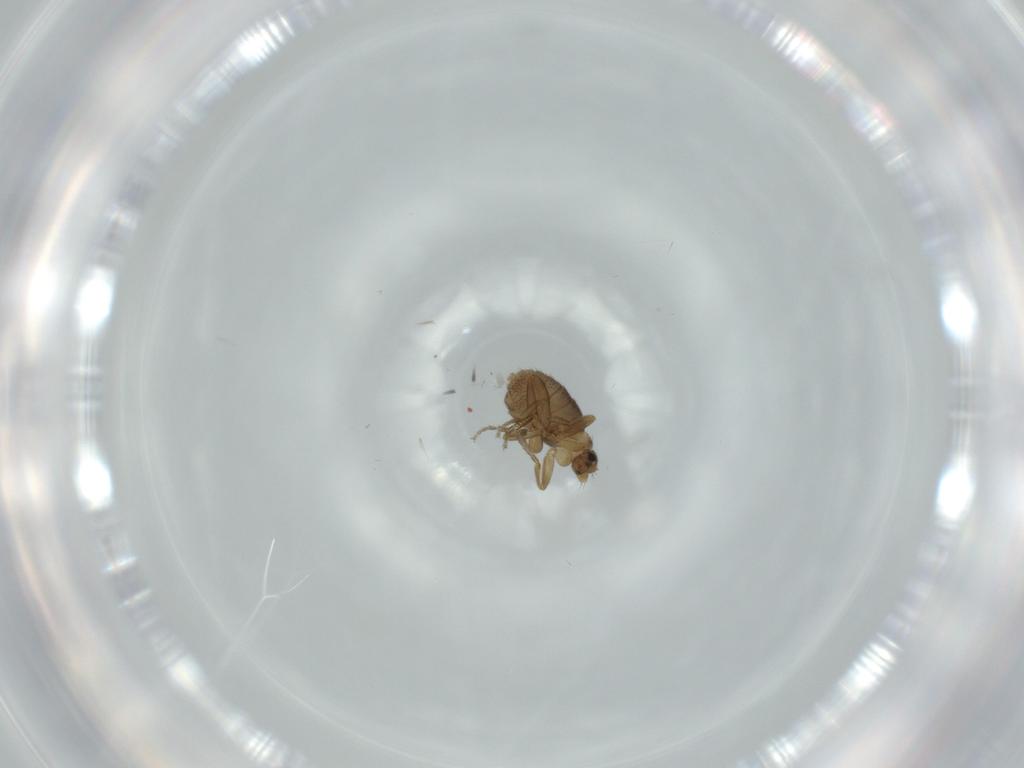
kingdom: Animalia
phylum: Arthropoda
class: Insecta
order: Diptera
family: Phoridae
